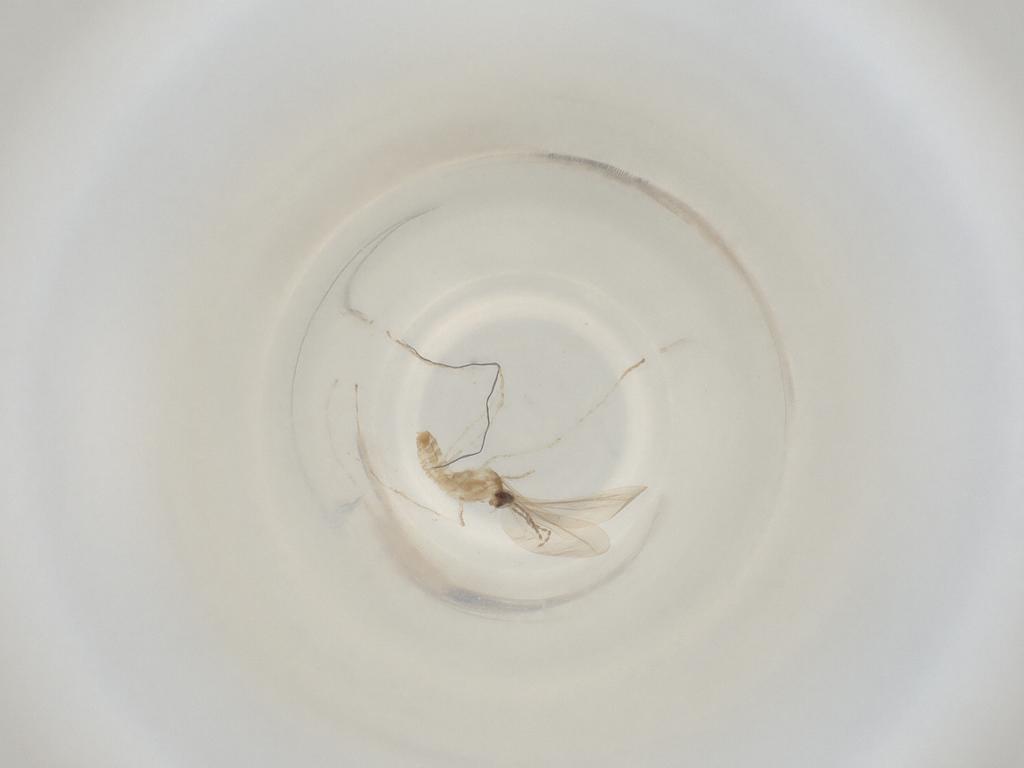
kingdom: Animalia
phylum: Arthropoda
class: Insecta
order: Diptera
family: Cecidomyiidae
